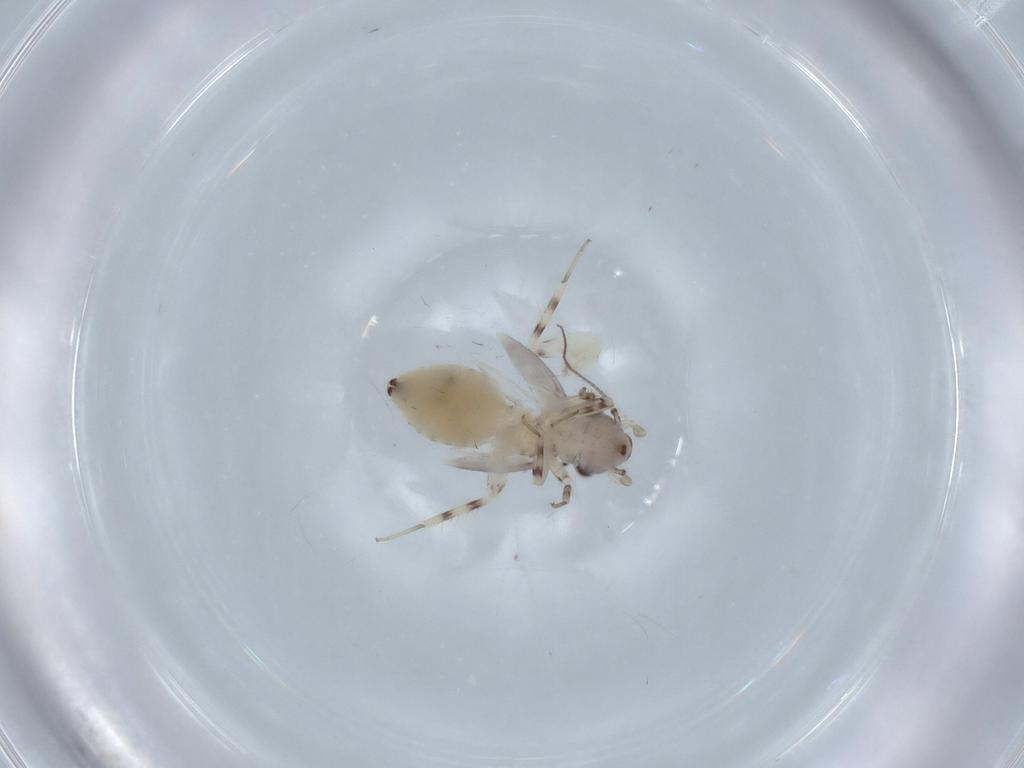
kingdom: Animalia
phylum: Arthropoda
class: Insecta
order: Psocodea
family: Lepidopsocidae
